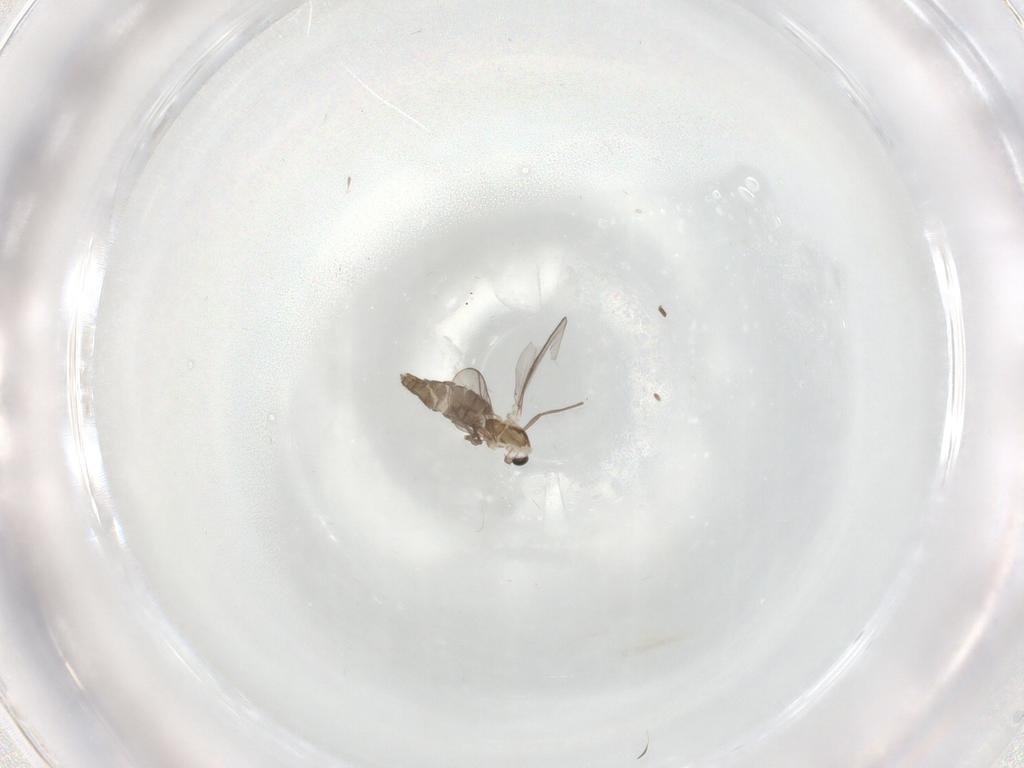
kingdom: Animalia
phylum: Arthropoda
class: Insecta
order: Diptera
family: Chironomidae
